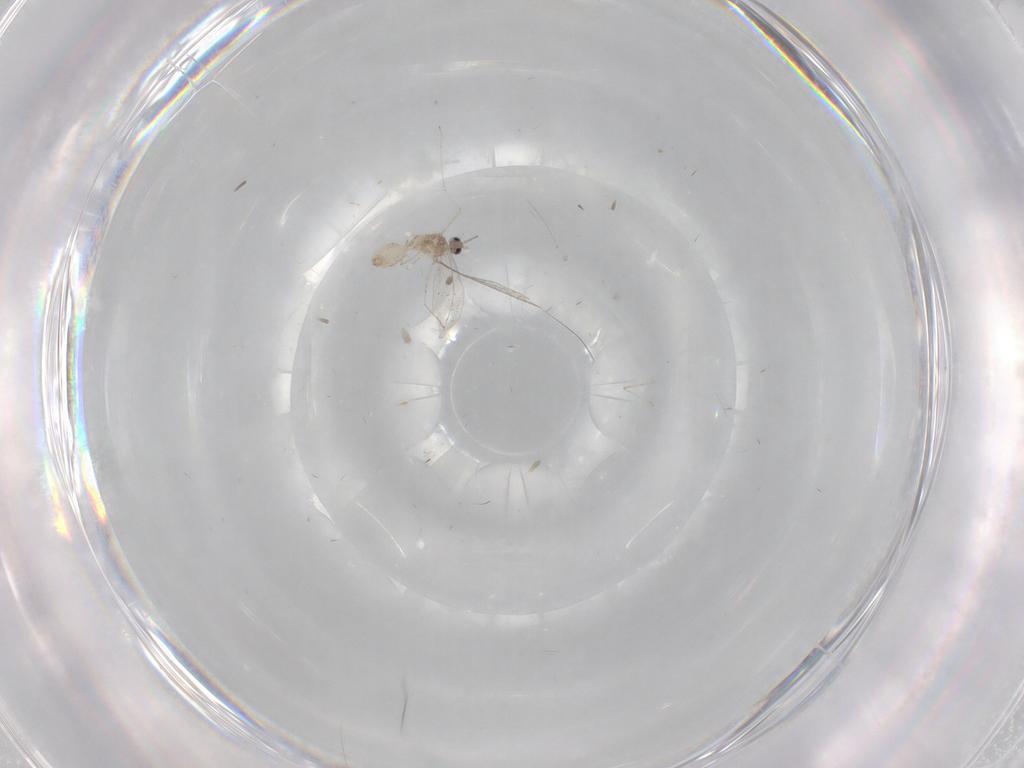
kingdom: Animalia
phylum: Arthropoda
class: Insecta
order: Diptera
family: Cecidomyiidae
